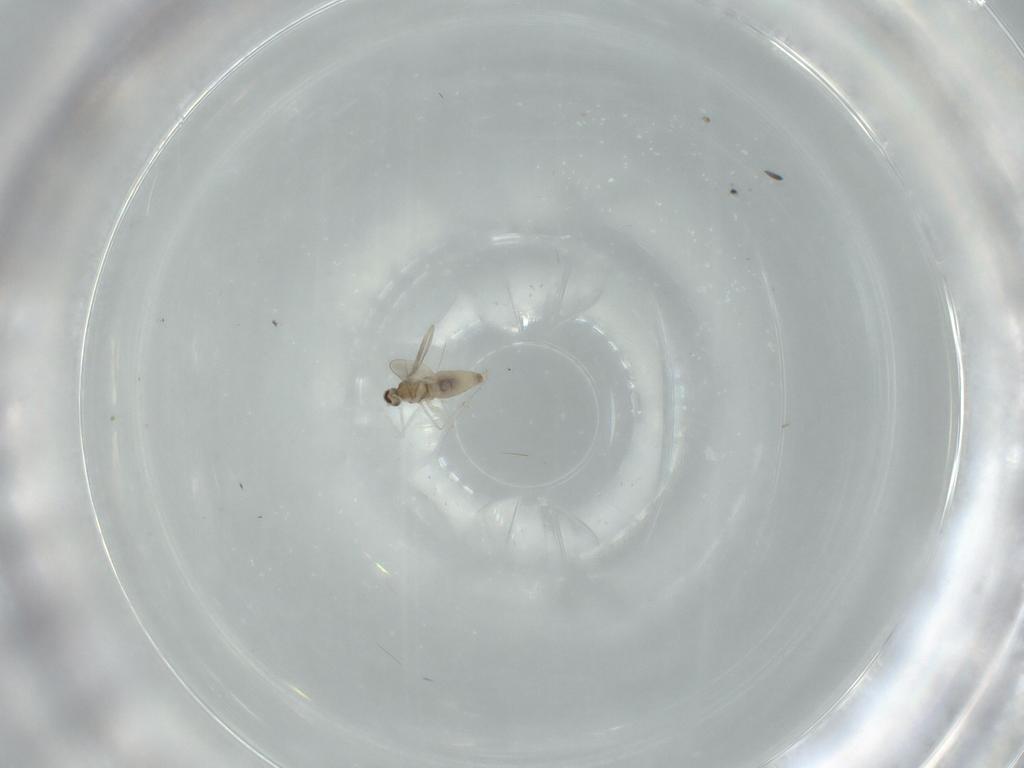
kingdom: Animalia
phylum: Arthropoda
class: Insecta
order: Diptera
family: Cecidomyiidae
